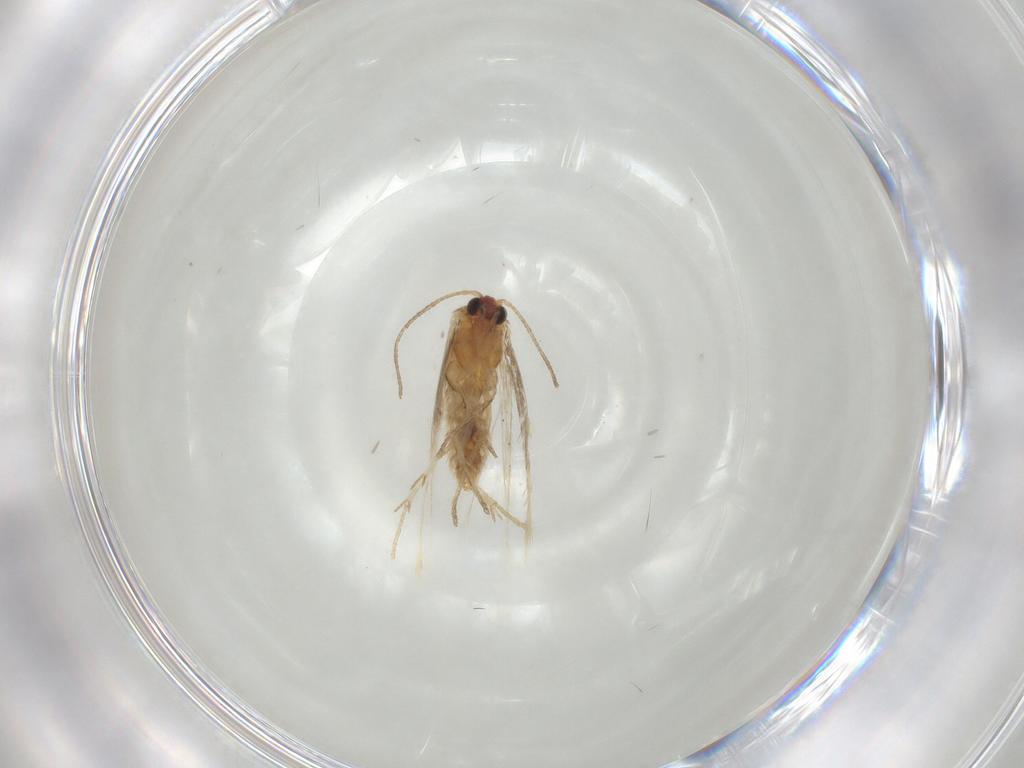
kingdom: Animalia
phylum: Arthropoda
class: Insecta
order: Lepidoptera
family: Nepticulidae
